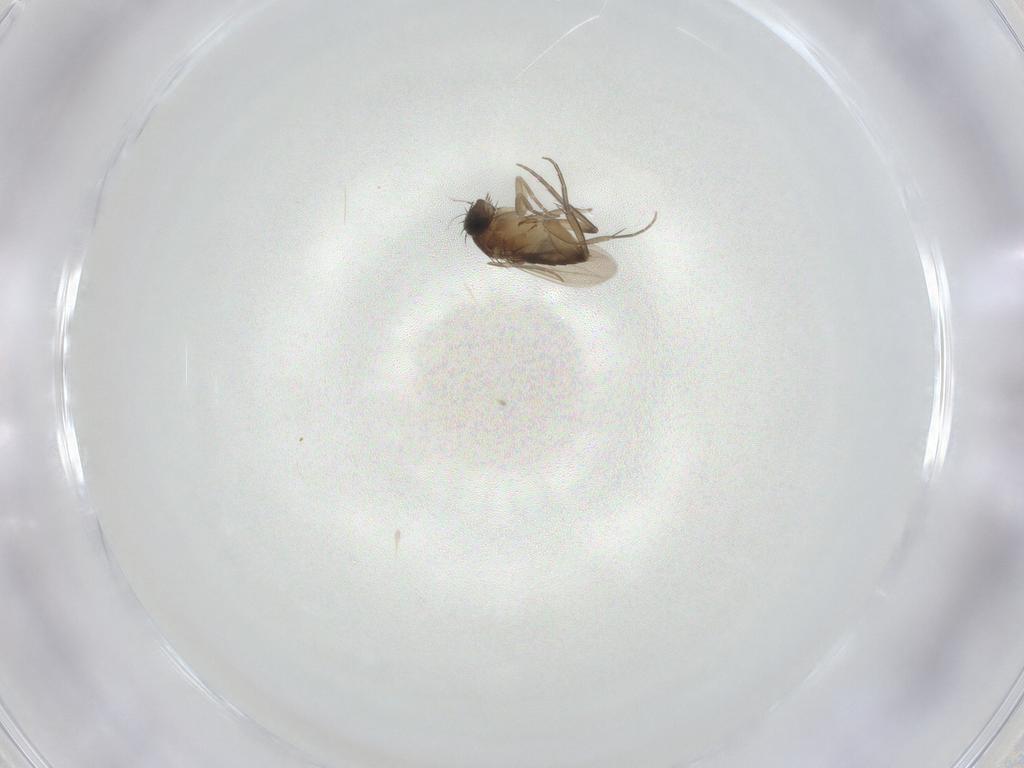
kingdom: Animalia
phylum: Arthropoda
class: Insecta
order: Diptera
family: Phoridae
